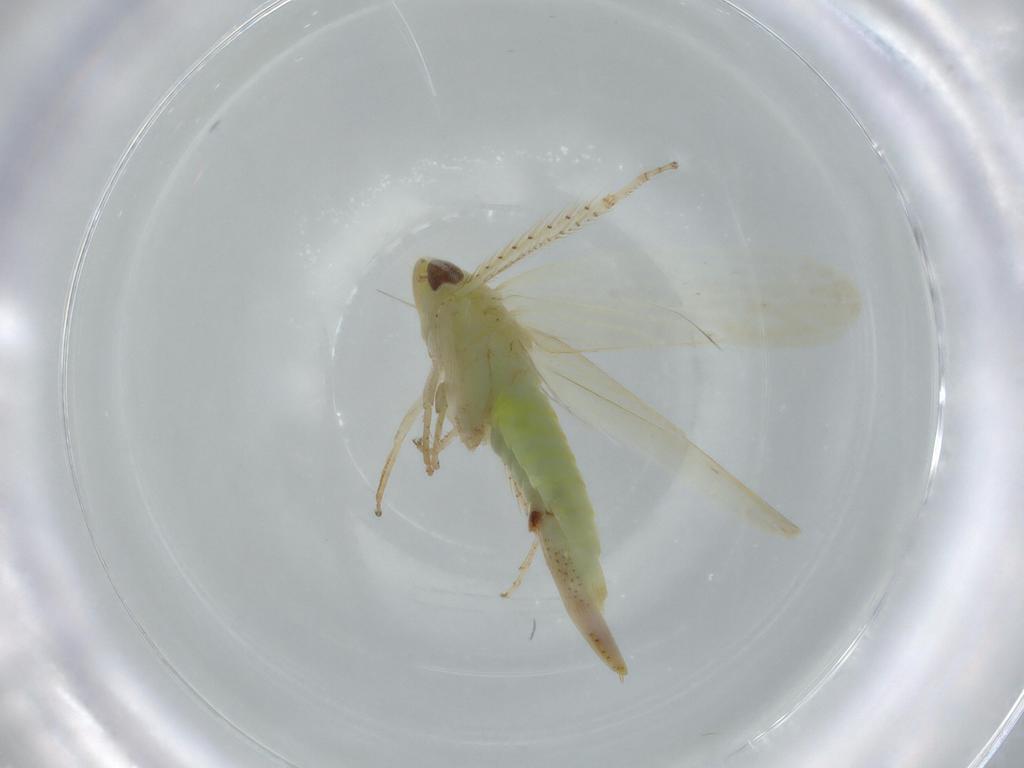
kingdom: Animalia
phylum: Arthropoda
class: Insecta
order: Hemiptera
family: Cicadellidae
